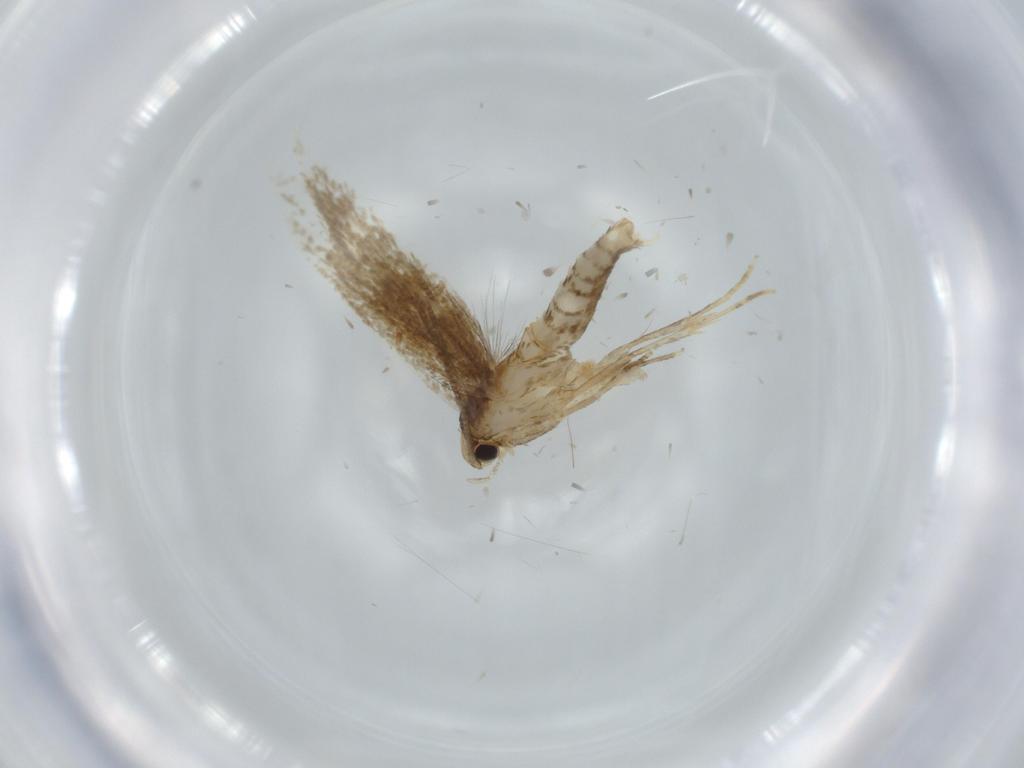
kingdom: Animalia
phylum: Arthropoda
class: Insecta
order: Lepidoptera
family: Tineidae
